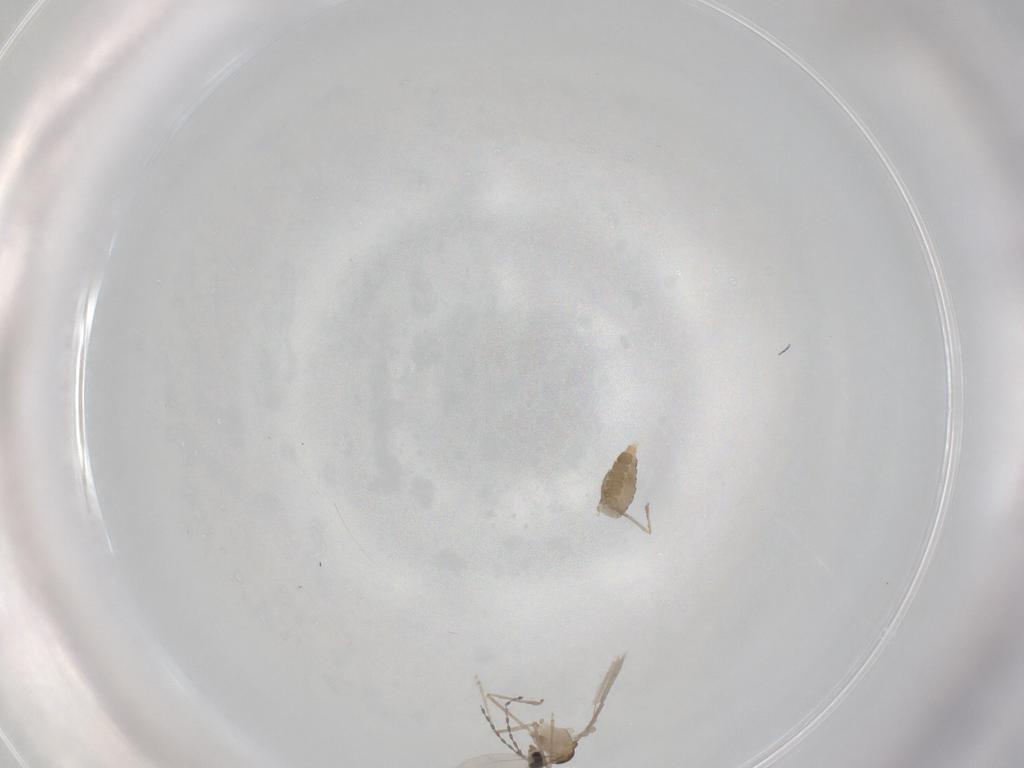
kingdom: Animalia
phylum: Arthropoda
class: Insecta
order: Diptera
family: Cecidomyiidae
